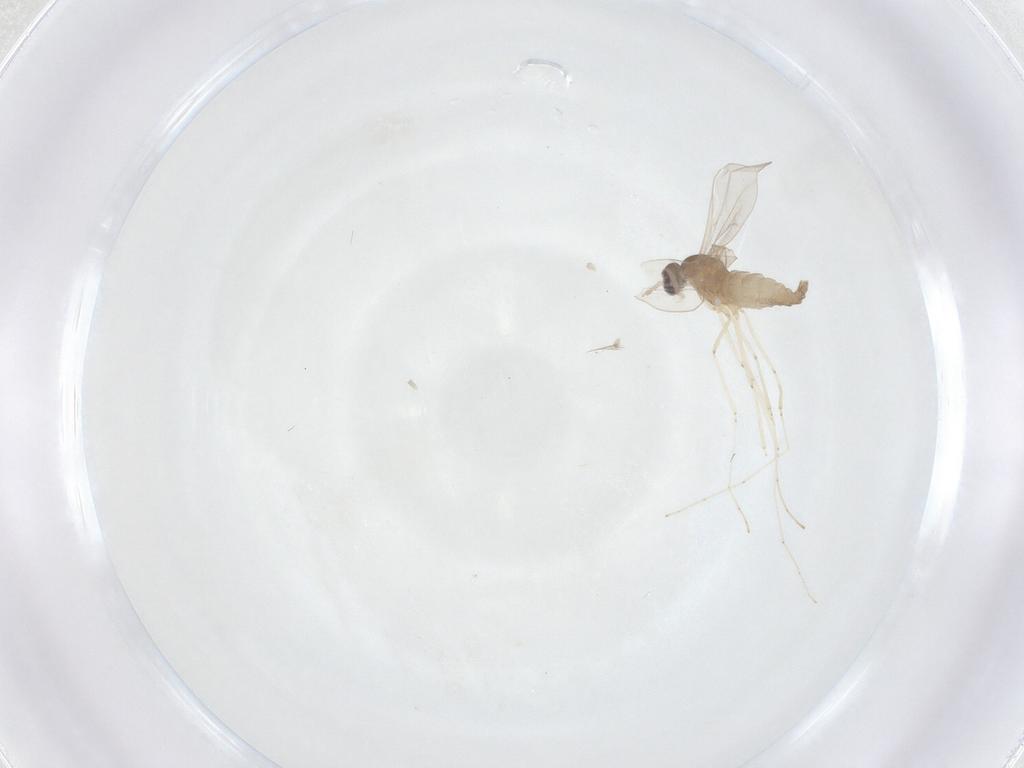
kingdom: Animalia
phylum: Arthropoda
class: Insecta
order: Diptera
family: Cecidomyiidae
